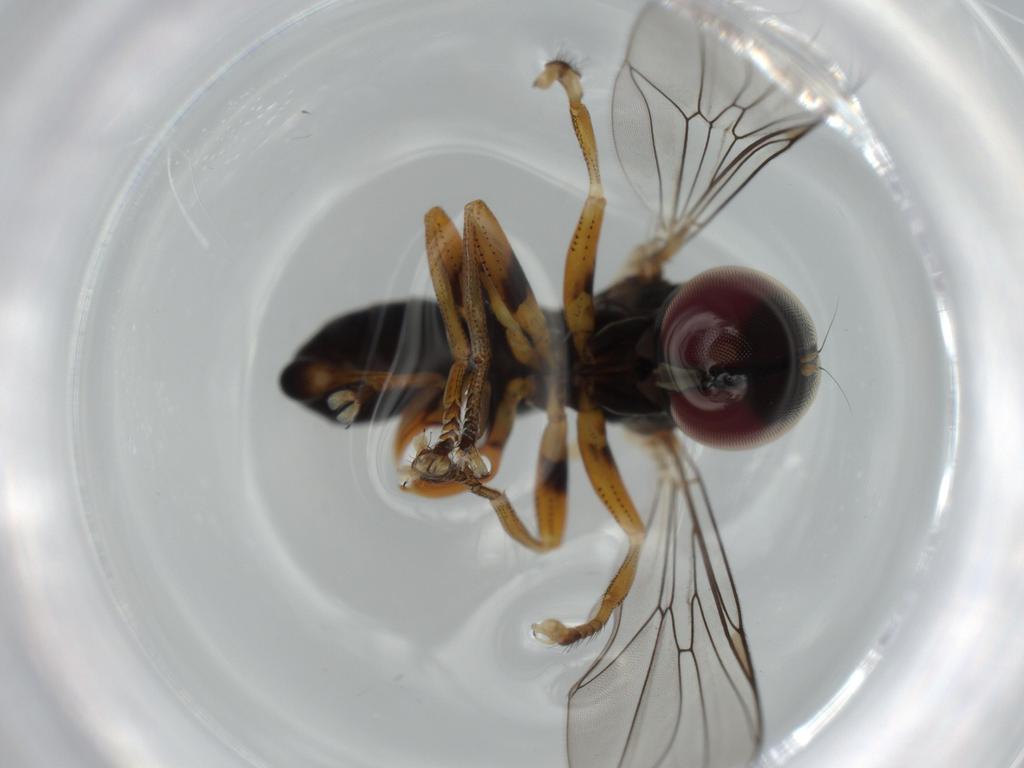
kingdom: Animalia
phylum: Arthropoda
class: Insecta
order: Diptera
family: Pipunculidae
